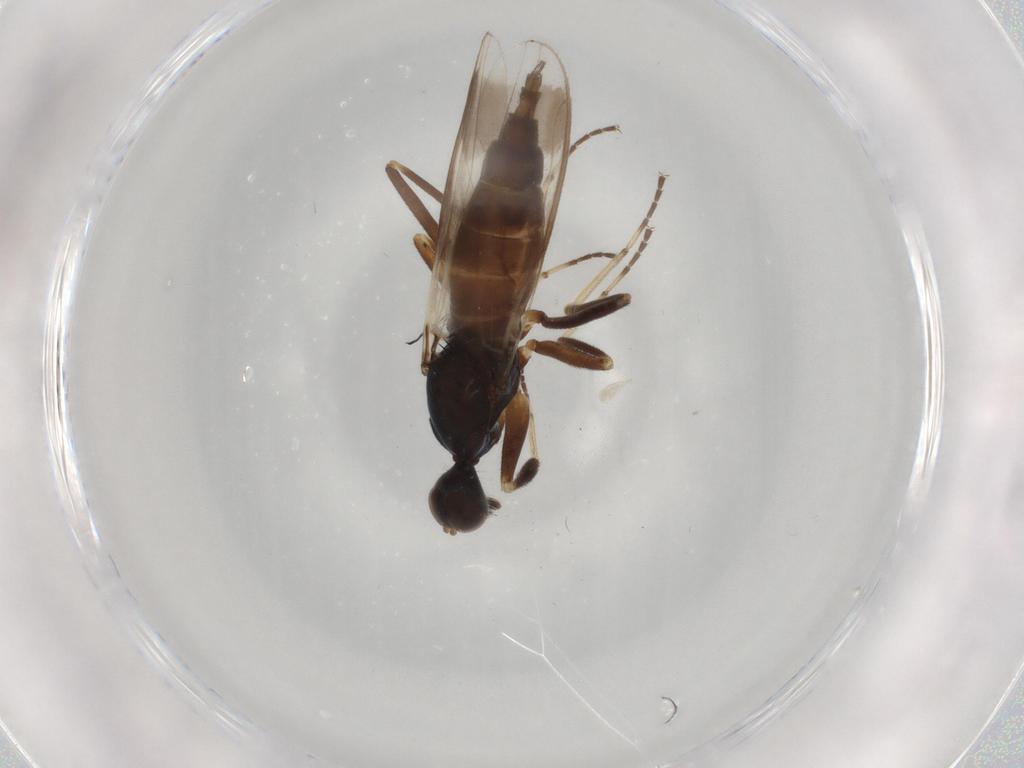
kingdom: Animalia
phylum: Arthropoda
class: Insecta
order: Diptera
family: Hybotidae
